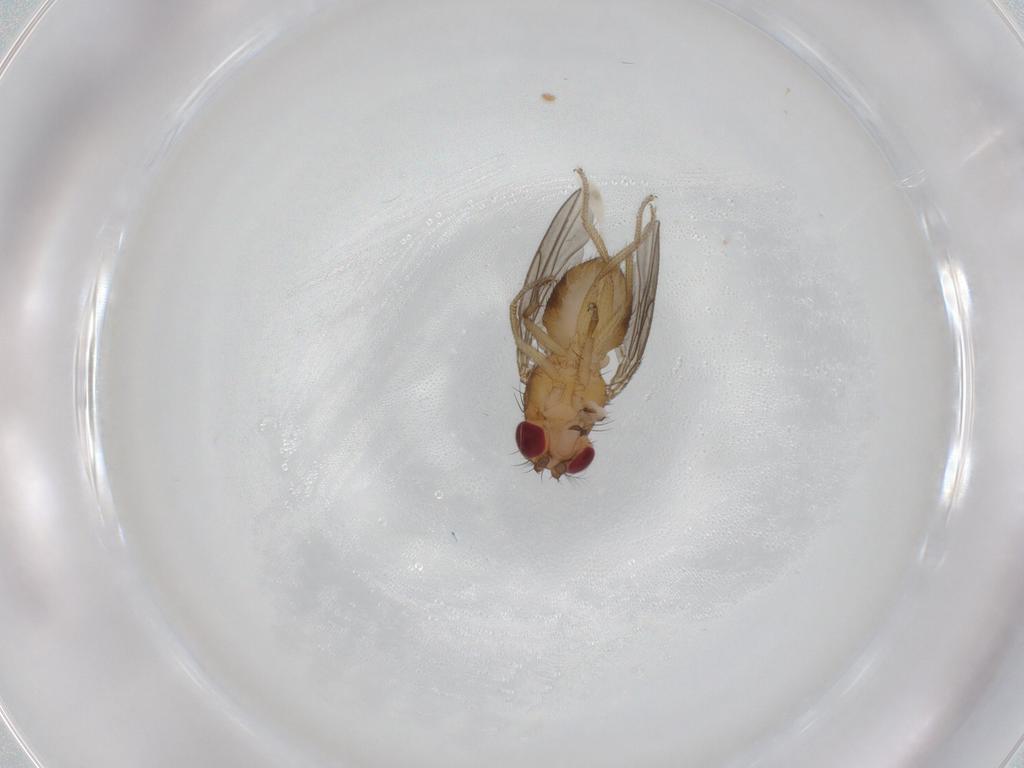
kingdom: Animalia
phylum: Arthropoda
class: Insecta
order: Diptera
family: Drosophilidae
